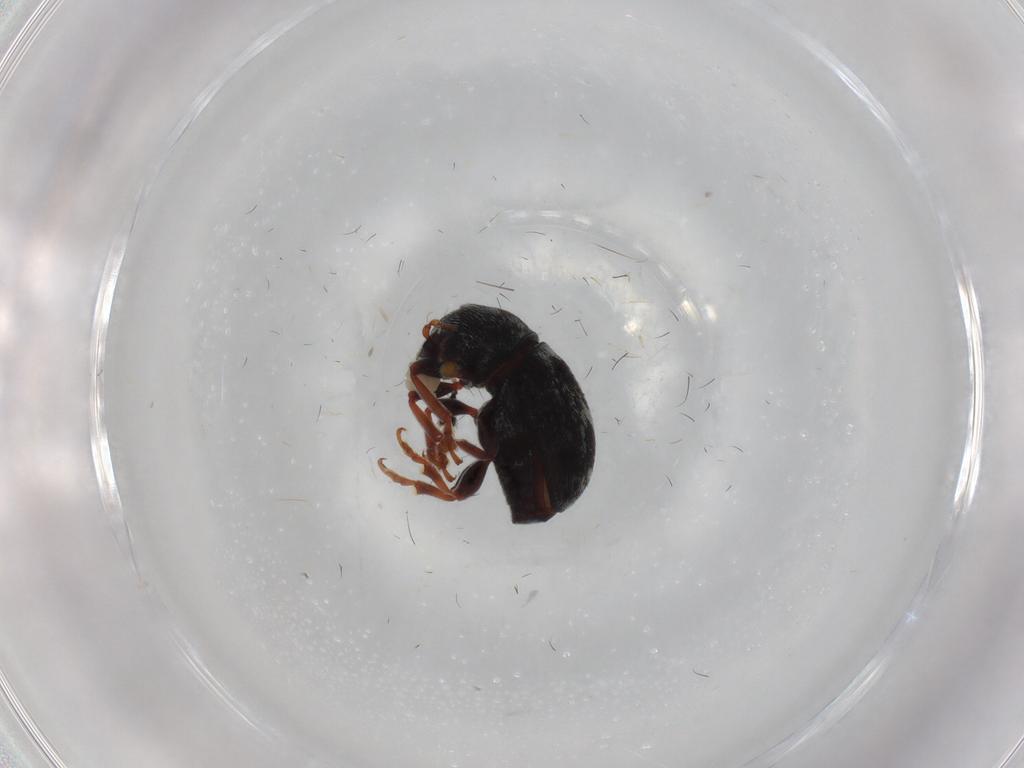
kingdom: Animalia
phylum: Arthropoda
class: Insecta
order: Coleoptera
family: Anthribidae
